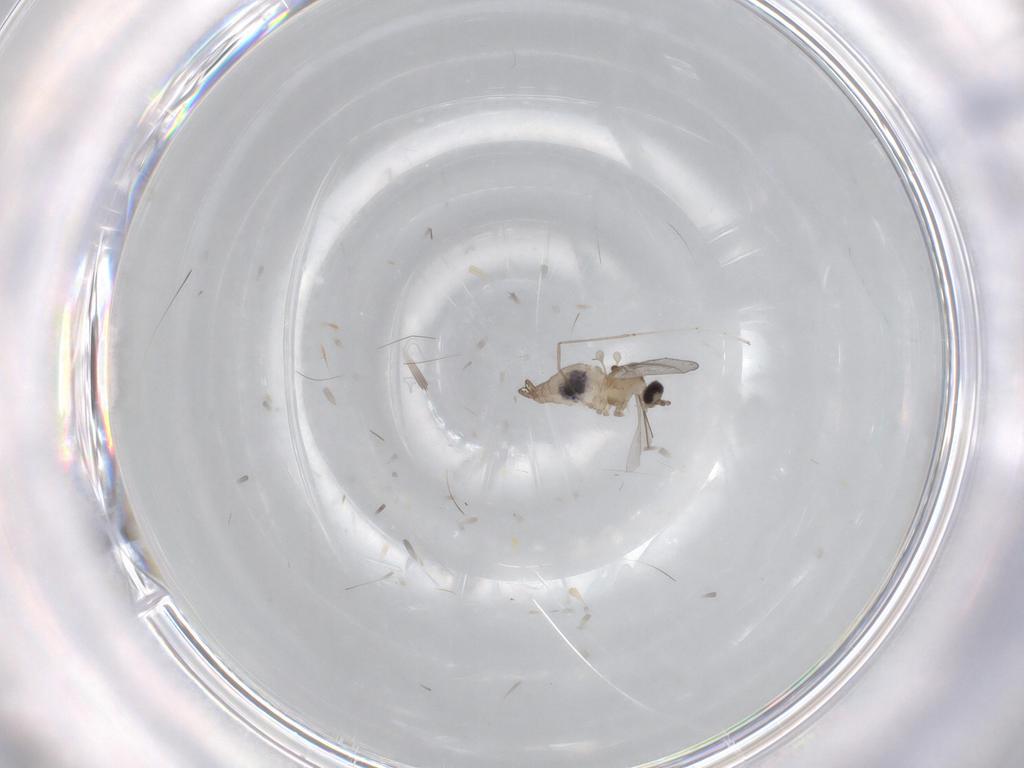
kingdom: Animalia
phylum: Arthropoda
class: Insecta
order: Diptera
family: Cecidomyiidae
